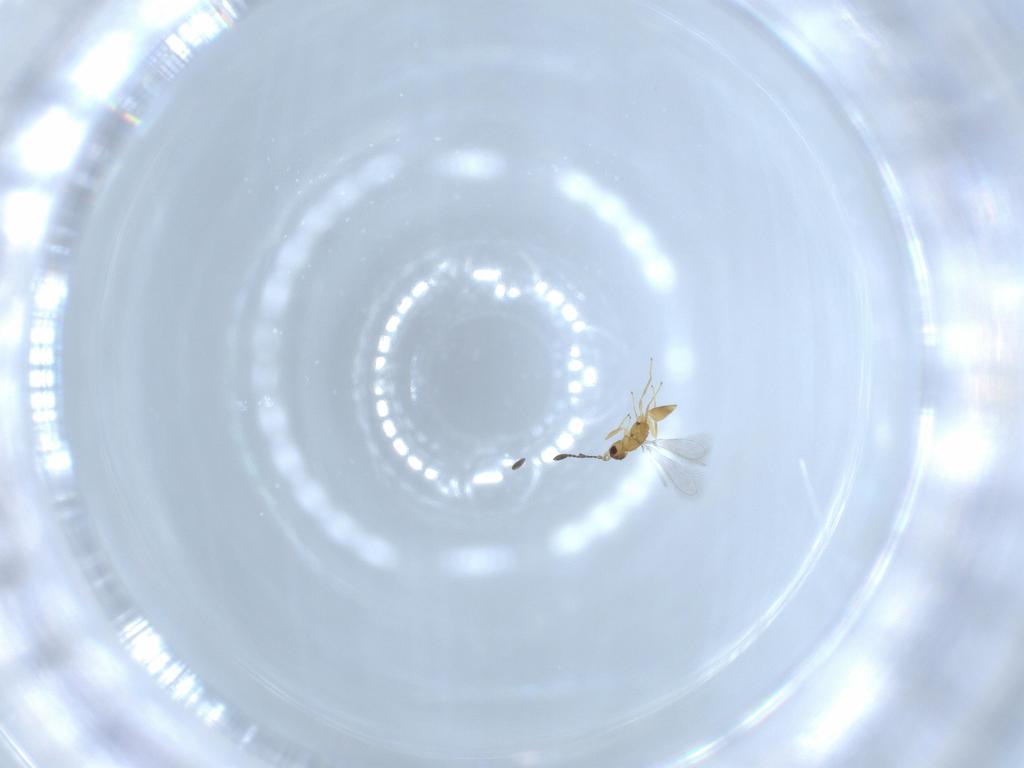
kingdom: Animalia
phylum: Arthropoda
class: Insecta
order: Hymenoptera
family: Mymaridae
